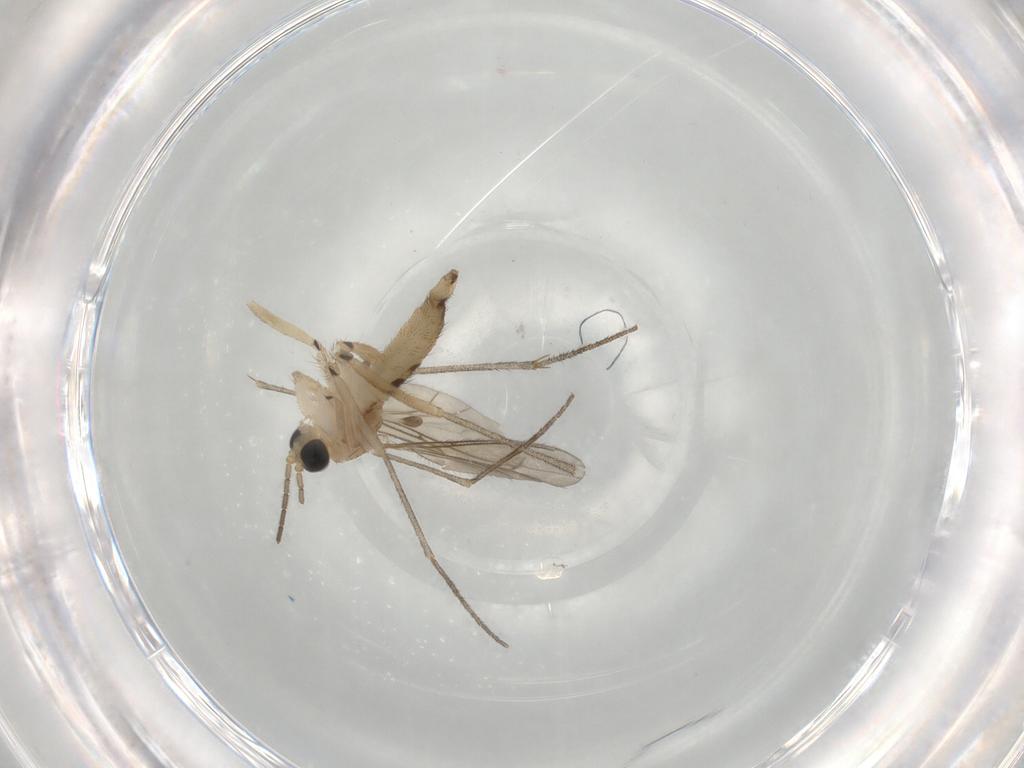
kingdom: Animalia
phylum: Arthropoda
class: Insecta
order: Diptera
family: Sciaridae
